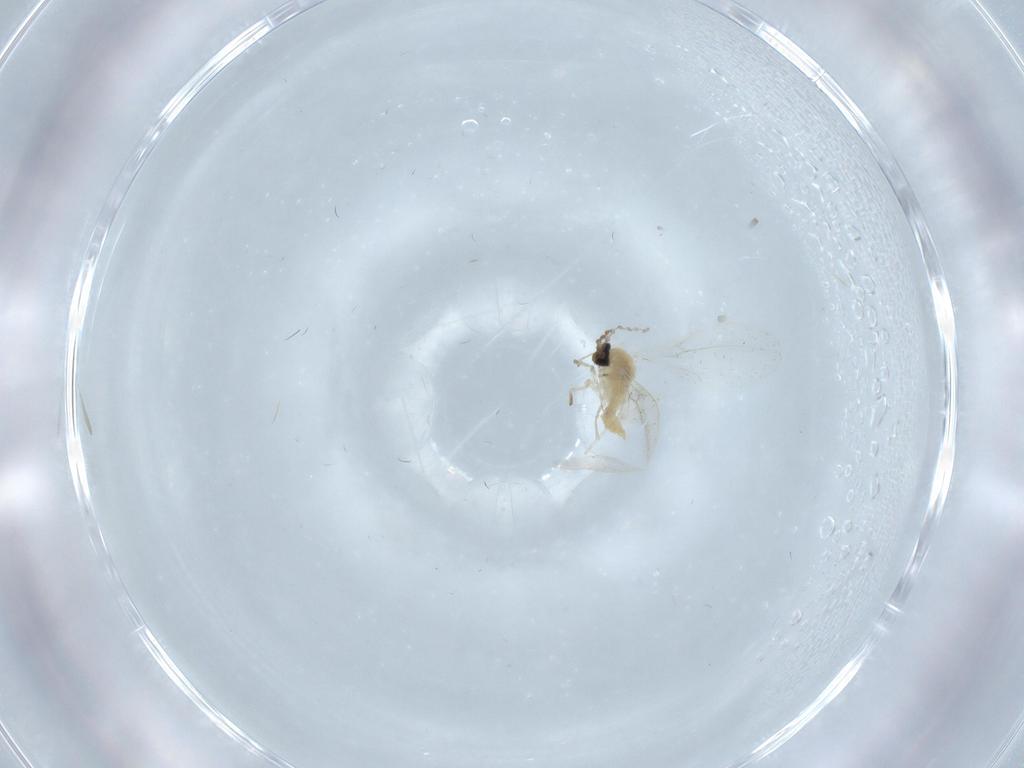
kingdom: Animalia
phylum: Arthropoda
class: Insecta
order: Diptera
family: Cecidomyiidae
